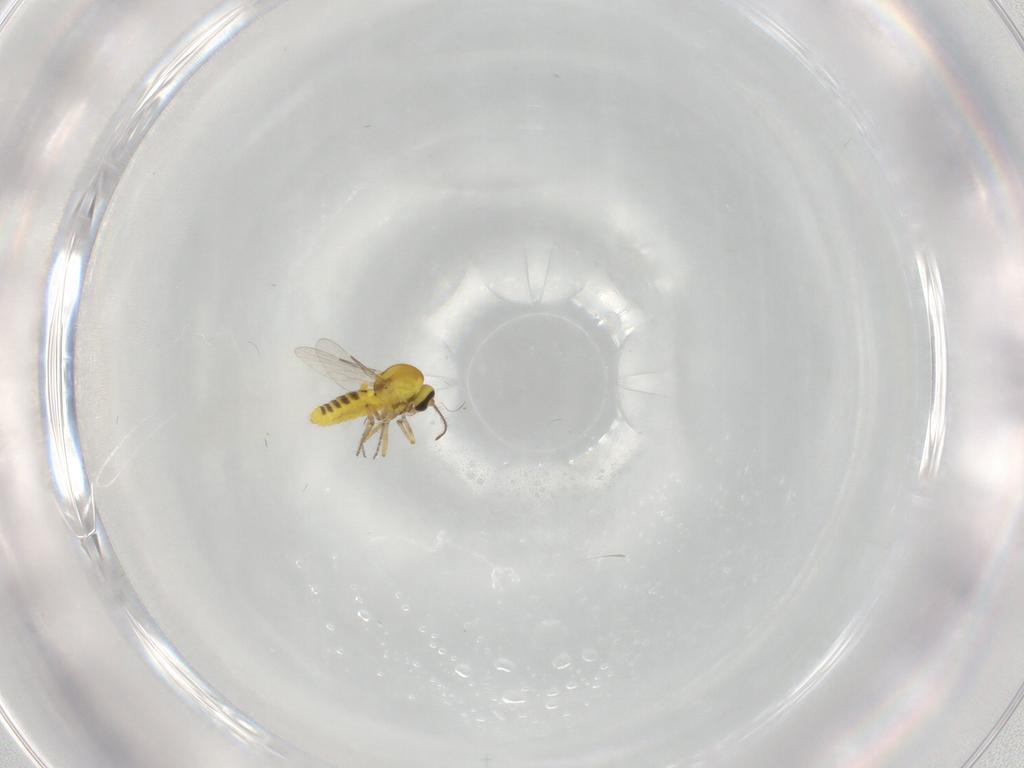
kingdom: Animalia
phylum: Arthropoda
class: Insecta
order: Diptera
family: Ceratopogonidae
